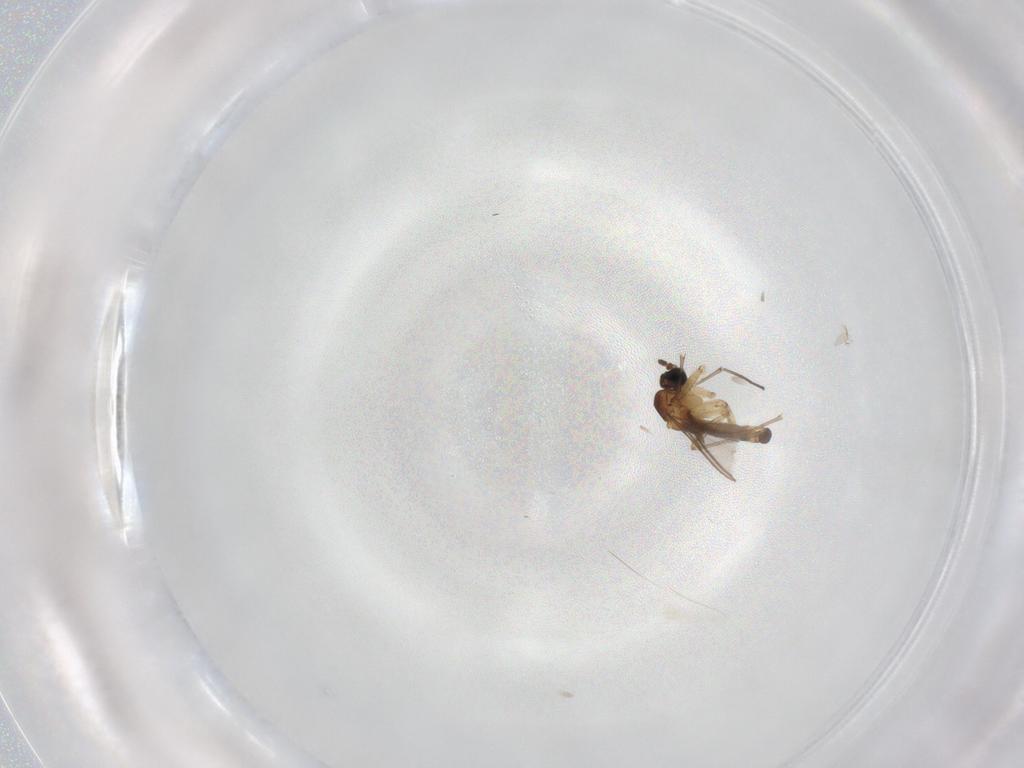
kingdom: Animalia
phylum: Arthropoda
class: Insecta
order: Diptera
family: Sciaridae
